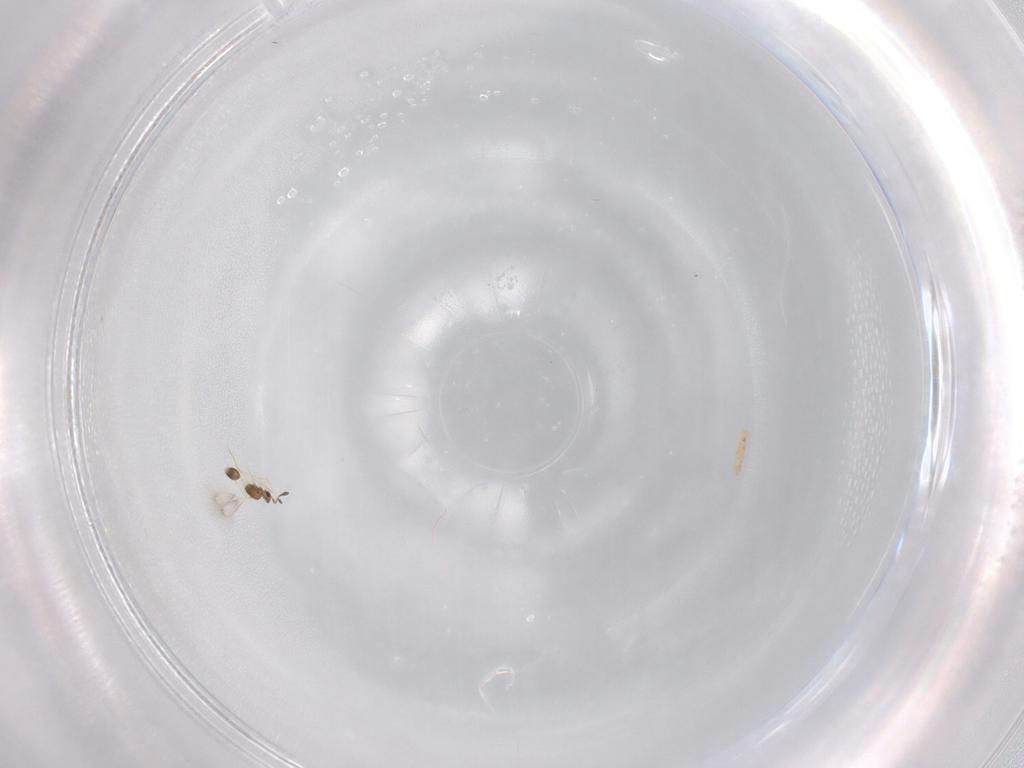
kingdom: Animalia
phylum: Arthropoda
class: Insecta
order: Hymenoptera
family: Mymarommatidae
